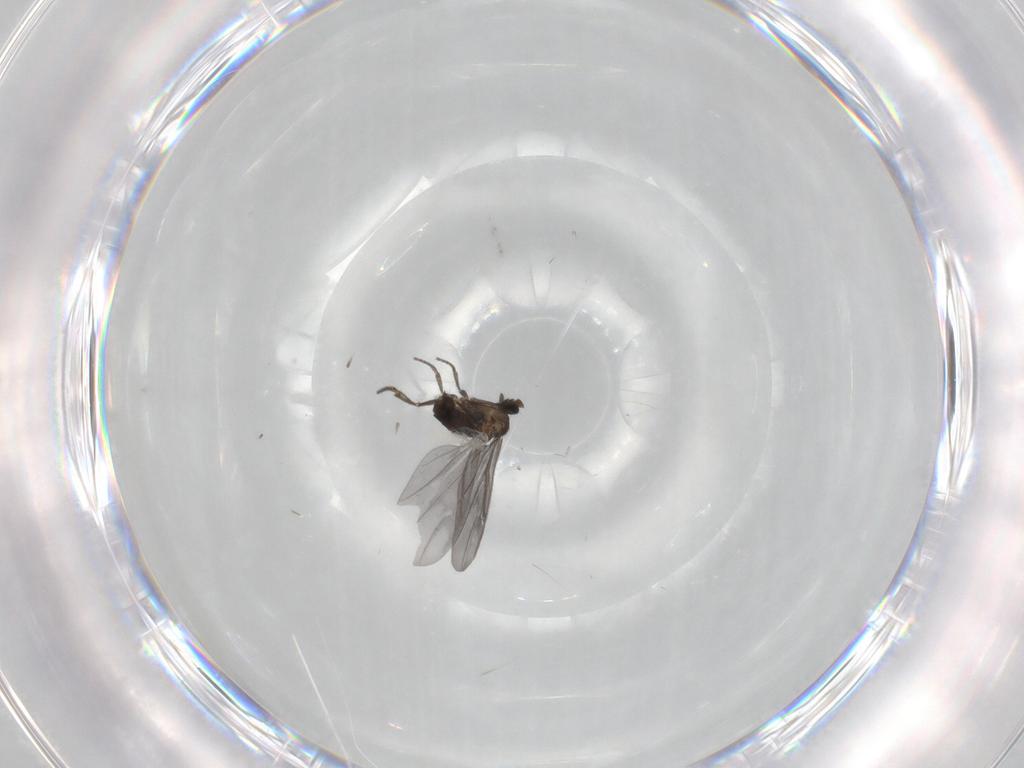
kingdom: Animalia
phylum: Arthropoda
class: Insecta
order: Diptera
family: Phoridae
